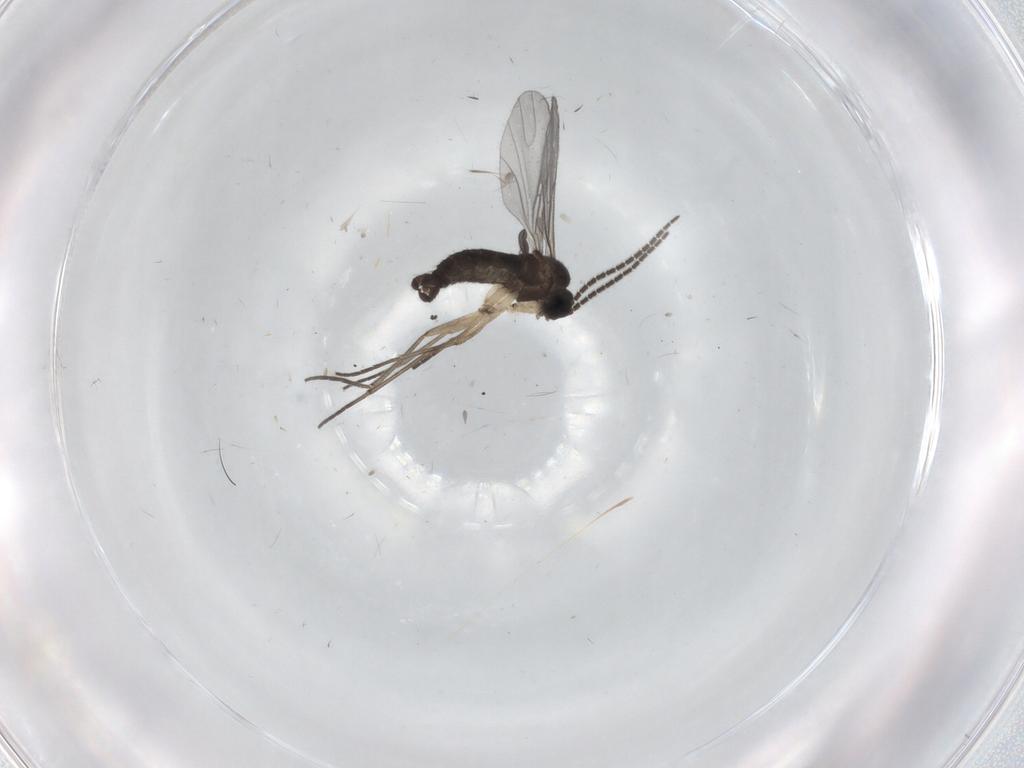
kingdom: Animalia
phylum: Arthropoda
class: Insecta
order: Diptera
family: Sciaridae
